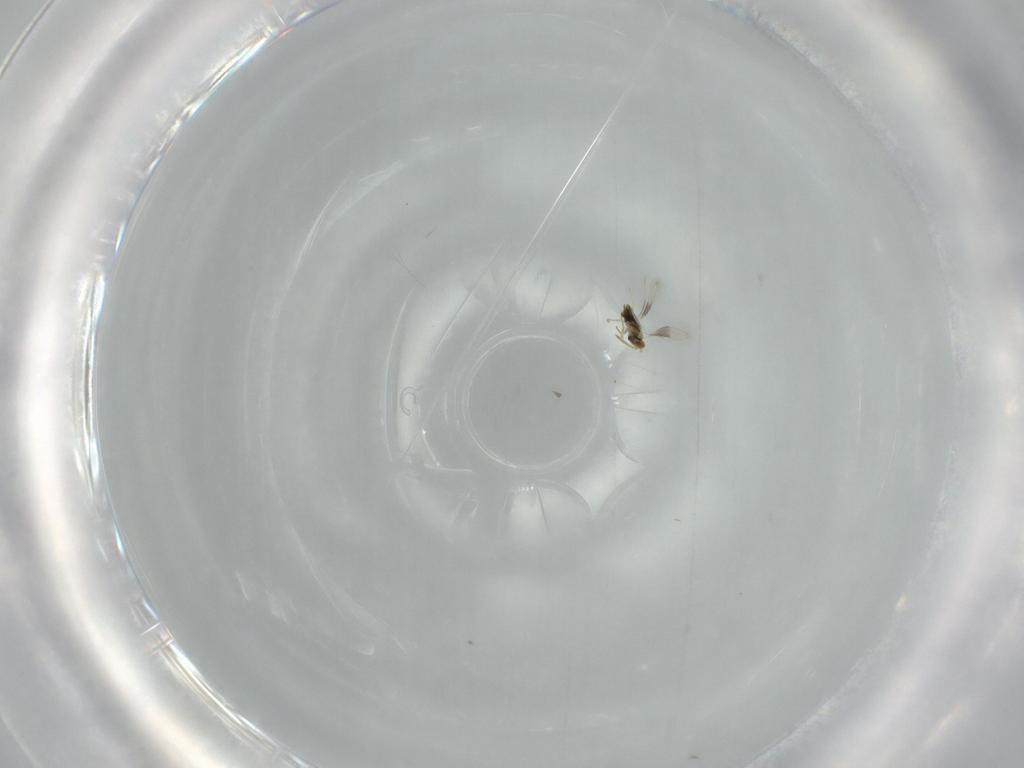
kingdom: Animalia
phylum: Arthropoda
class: Insecta
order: Hymenoptera
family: Aphelinidae
